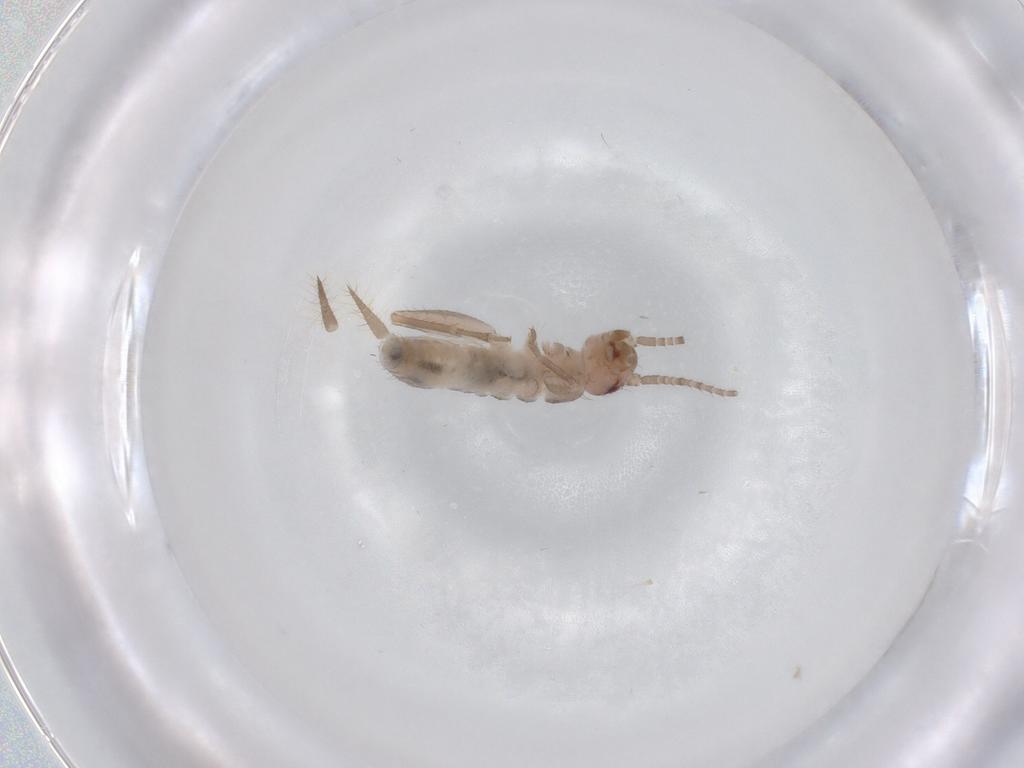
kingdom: Animalia
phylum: Arthropoda
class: Insecta
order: Orthoptera
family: Mogoplistidae
